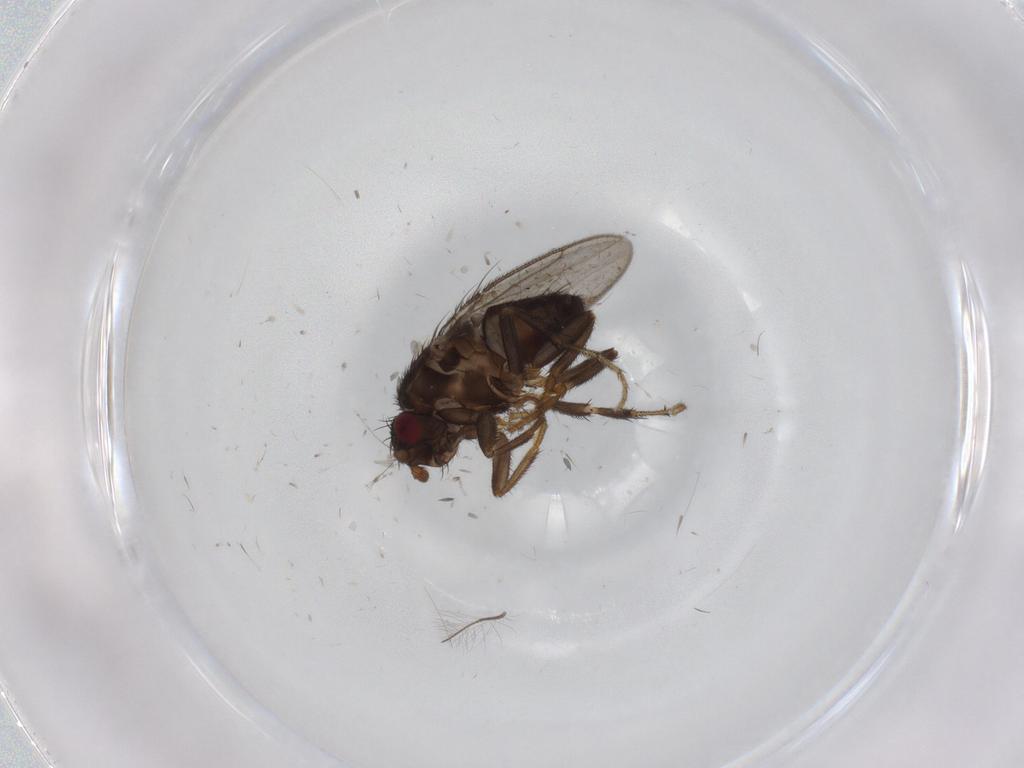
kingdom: Animalia
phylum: Arthropoda
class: Insecta
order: Diptera
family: Sphaeroceridae
